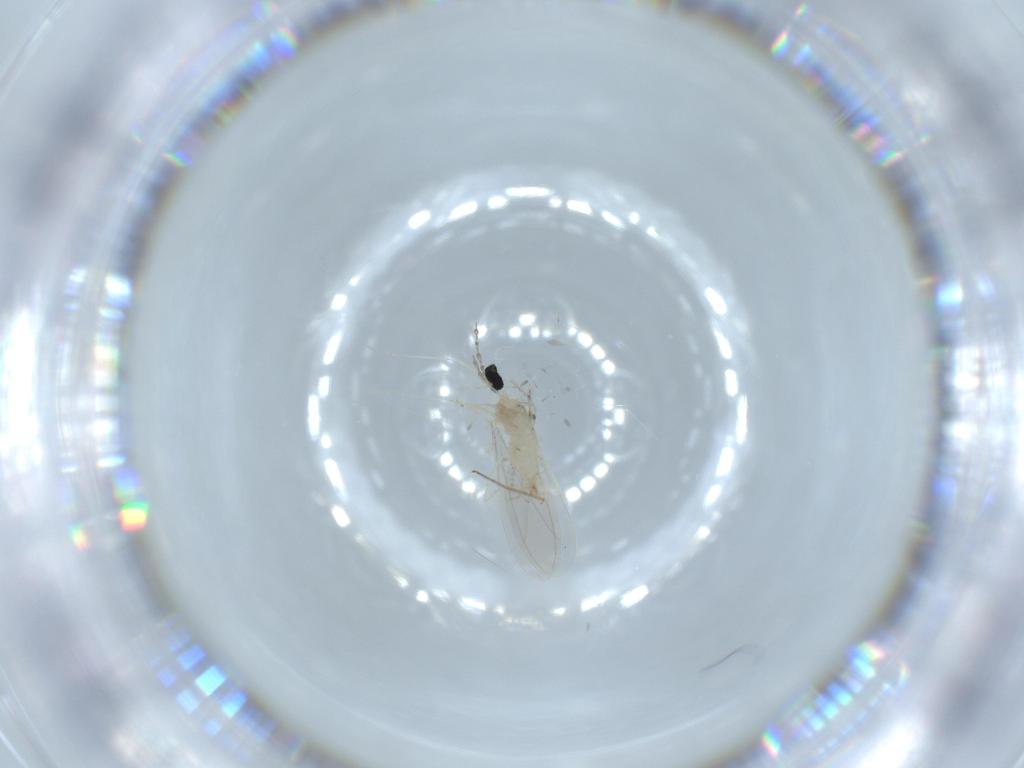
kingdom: Animalia
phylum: Arthropoda
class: Insecta
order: Diptera
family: Cecidomyiidae
